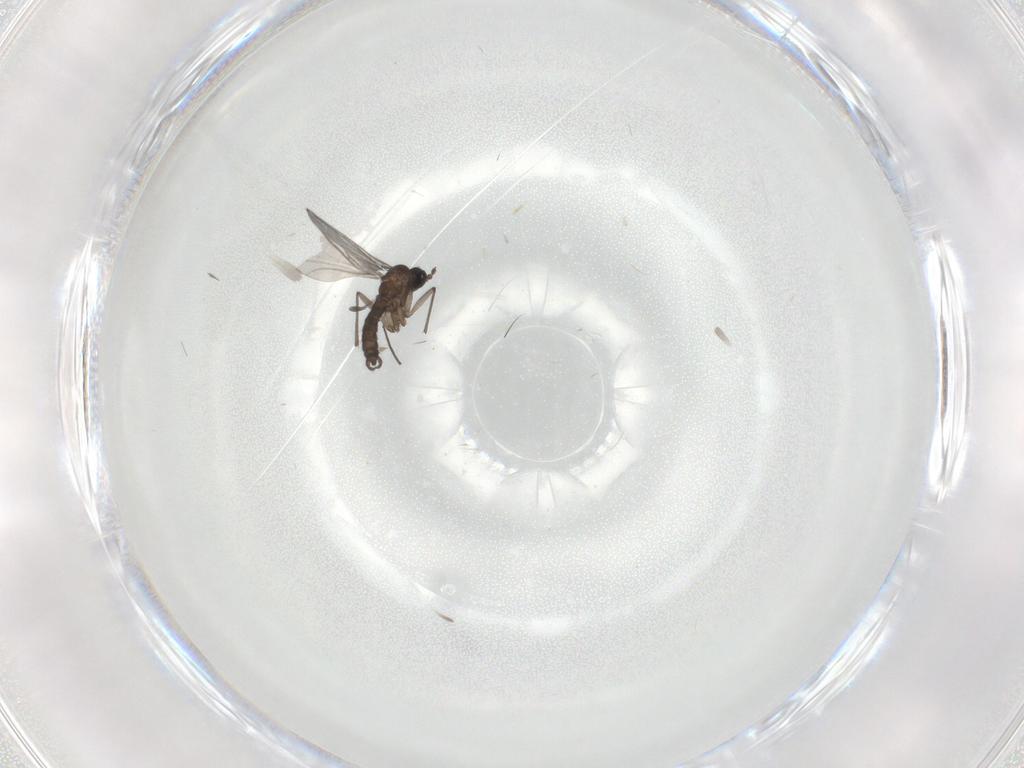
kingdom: Animalia
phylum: Arthropoda
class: Insecta
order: Diptera
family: Sciaridae
